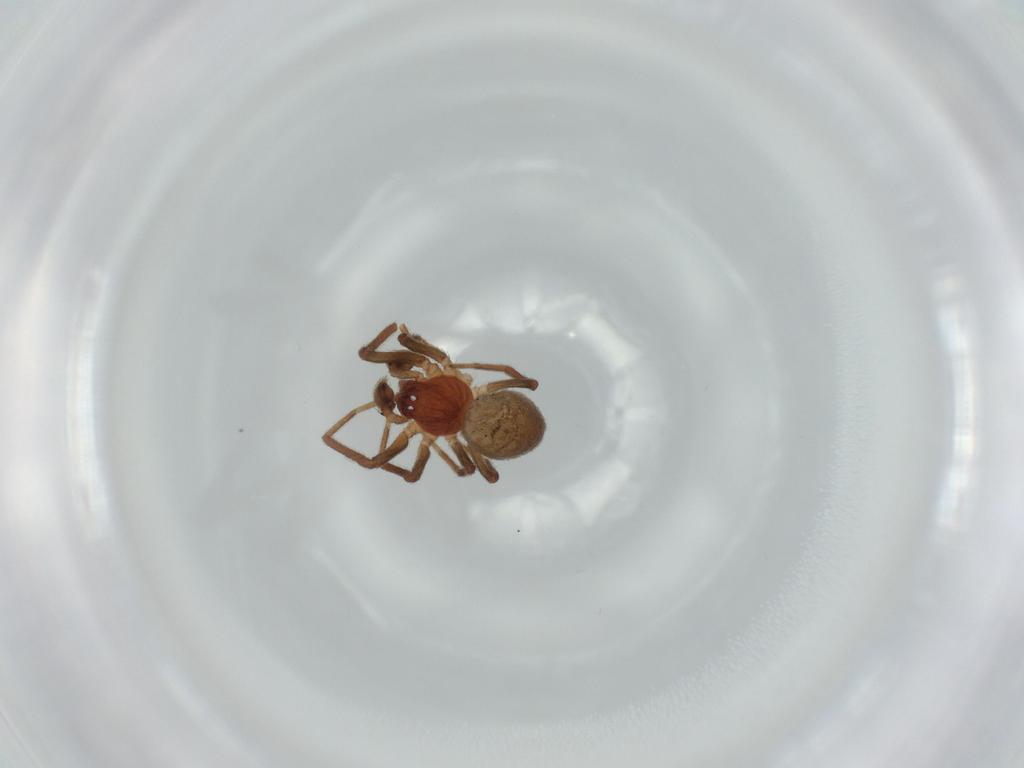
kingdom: Animalia
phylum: Arthropoda
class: Arachnida
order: Araneae
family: Dictynidae
